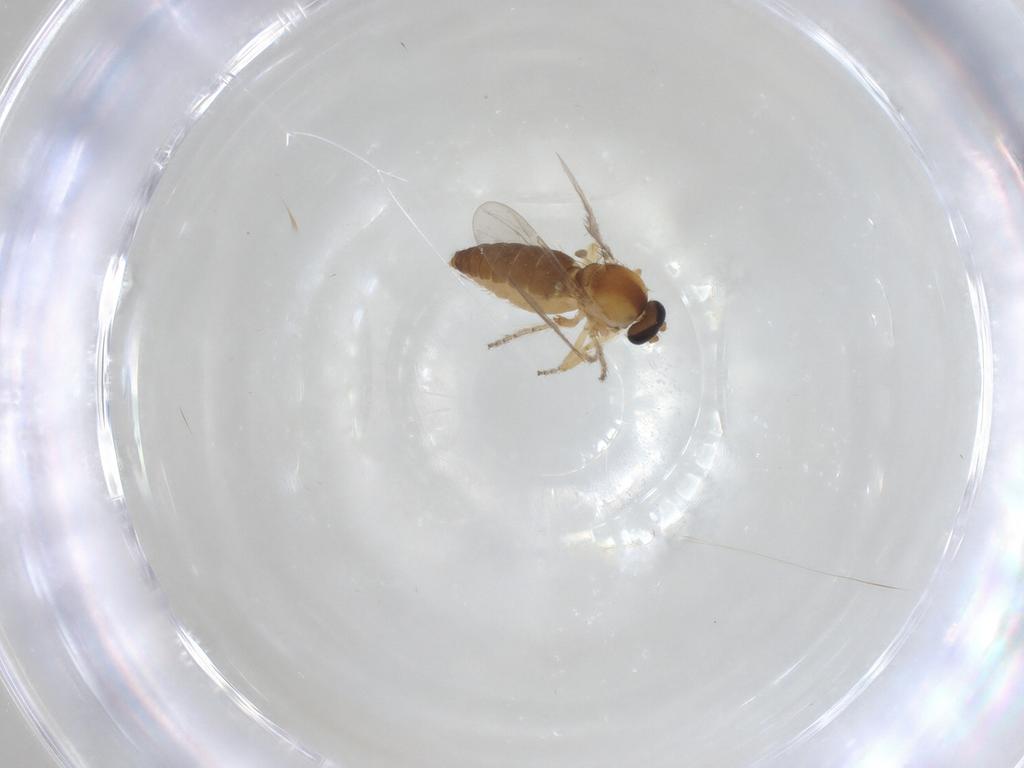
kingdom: Animalia
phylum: Arthropoda
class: Insecta
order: Diptera
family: Ceratopogonidae
